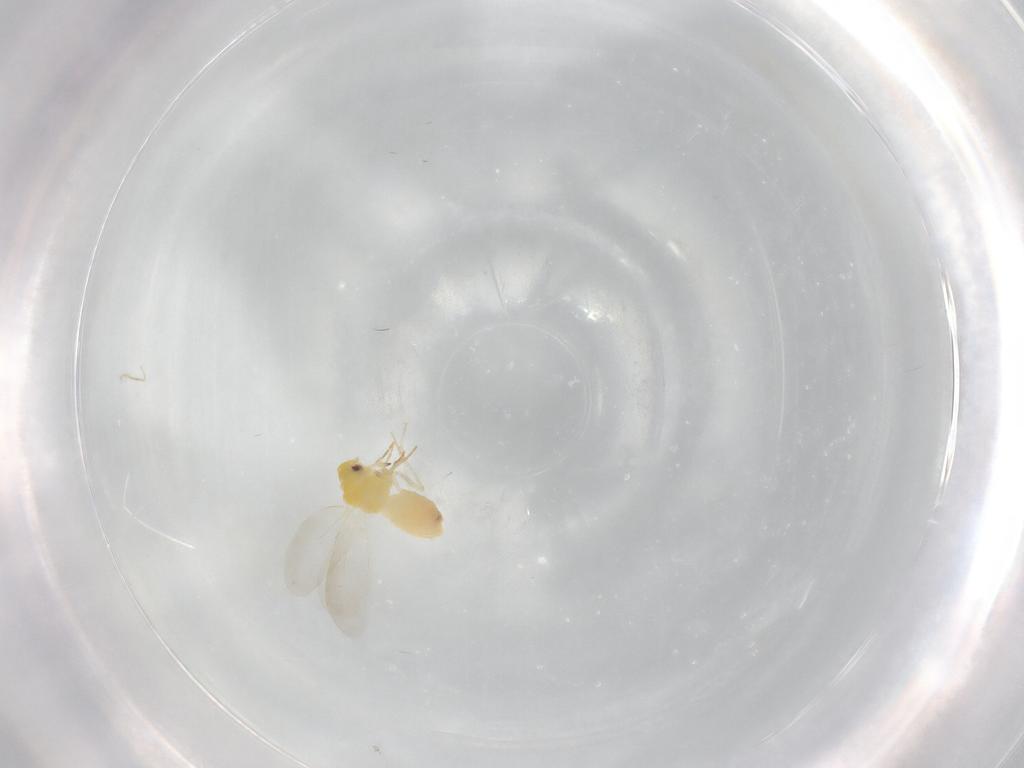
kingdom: Animalia
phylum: Arthropoda
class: Insecta
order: Hemiptera
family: Aleyrodidae
